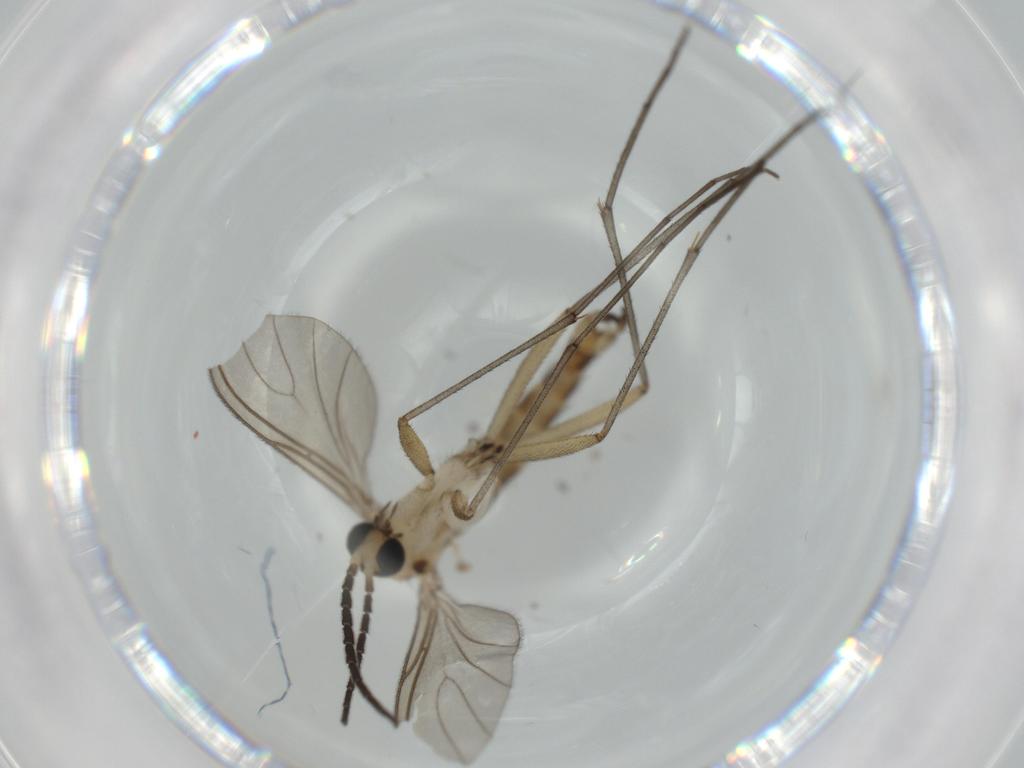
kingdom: Animalia
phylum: Arthropoda
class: Insecta
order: Diptera
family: Sciaridae
